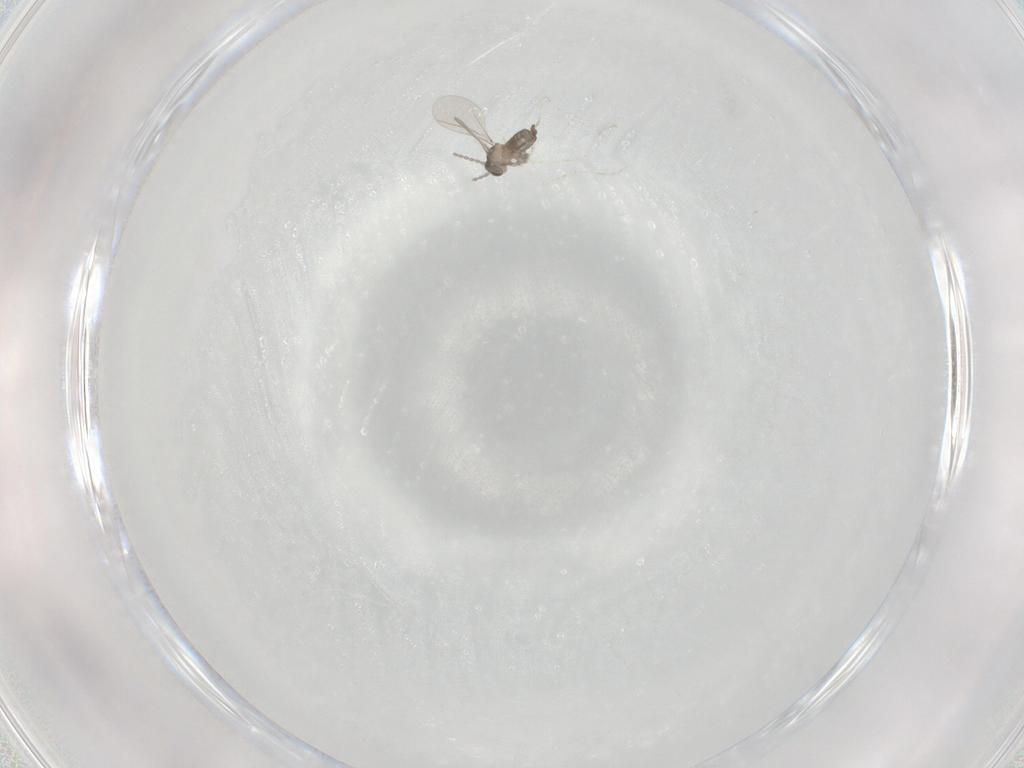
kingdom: Animalia
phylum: Arthropoda
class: Insecta
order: Diptera
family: Cecidomyiidae
